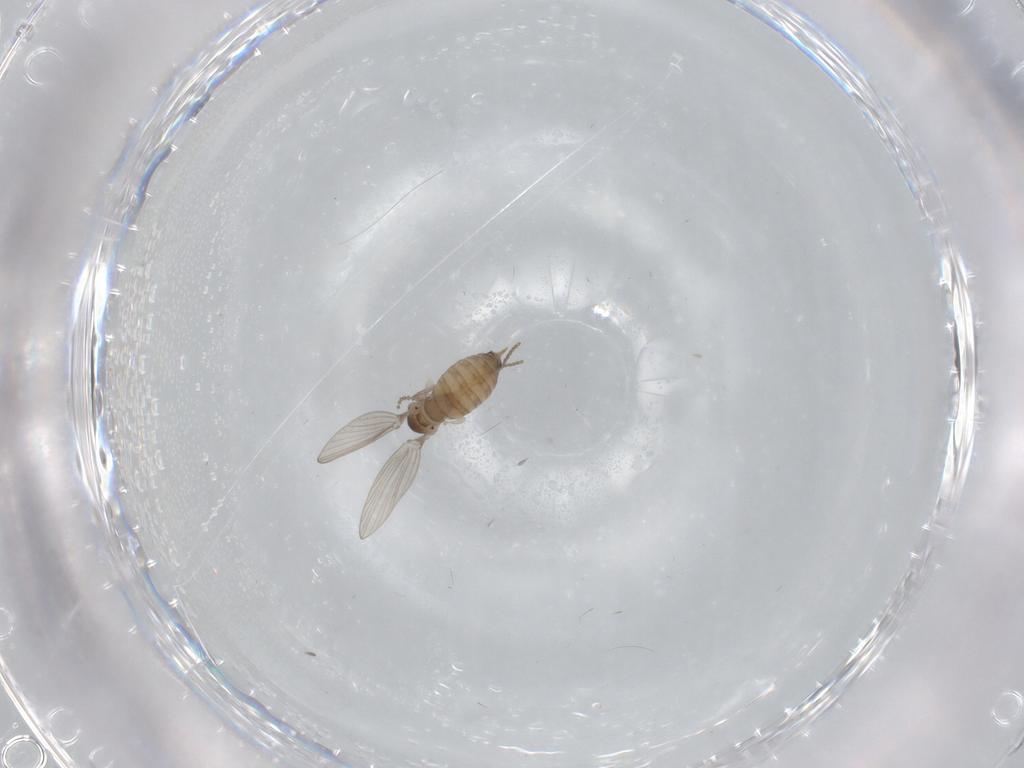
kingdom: Animalia
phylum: Arthropoda
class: Insecta
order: Diptera
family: Psychodidae
